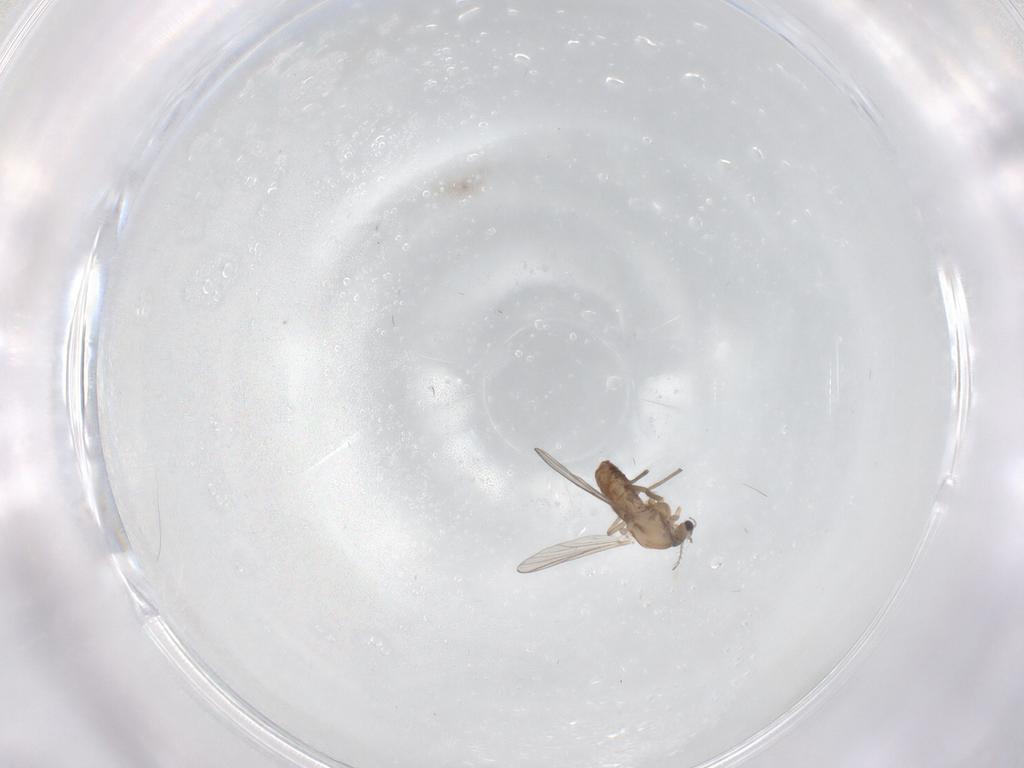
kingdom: Animalia
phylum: Arthropoda
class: Insecta
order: Diptera
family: Chironomidae
